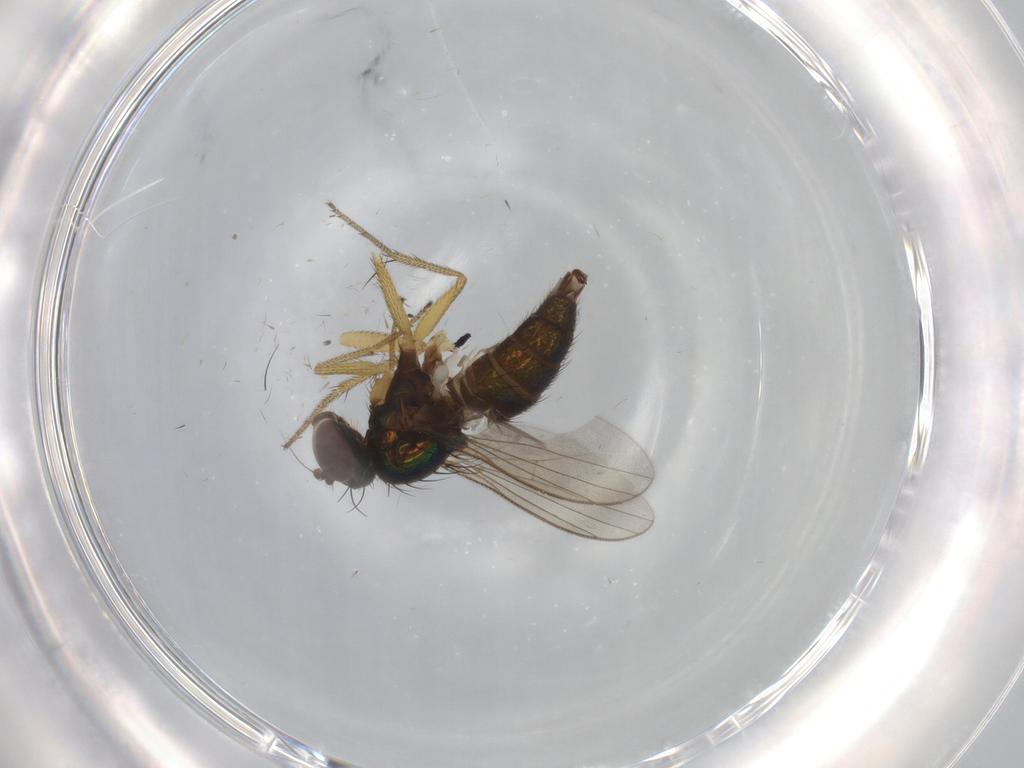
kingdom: Animalia
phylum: Arthropoda
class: Insecta
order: Diptera
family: Dolichopodidae
